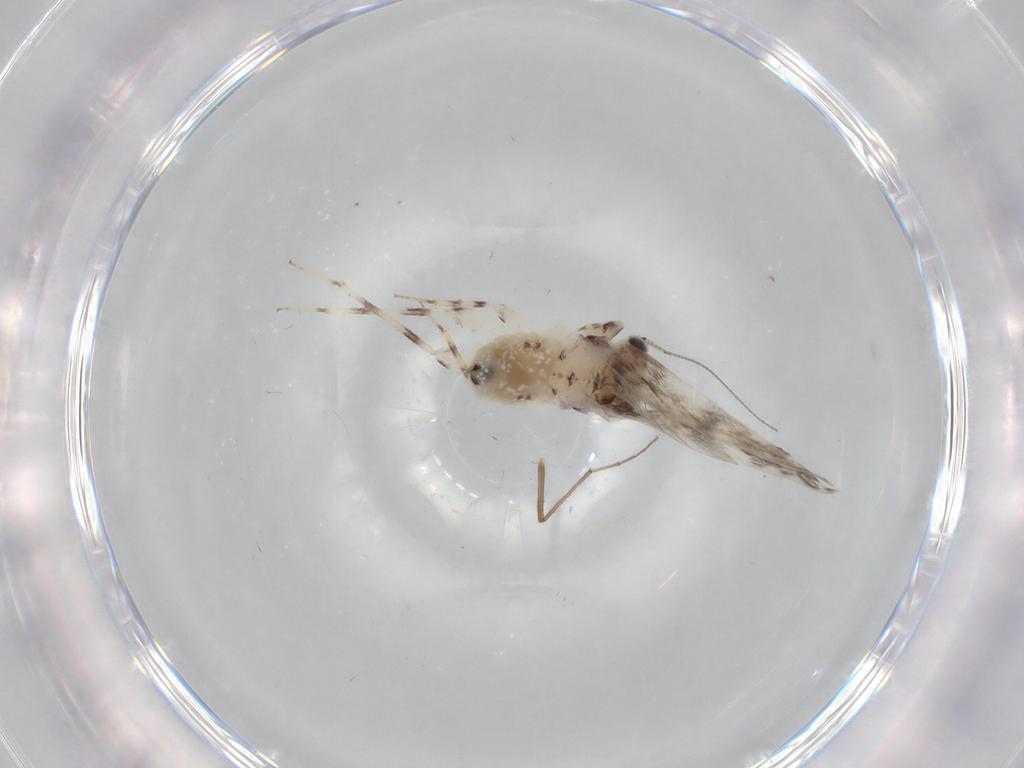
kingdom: Animalia
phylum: Arthropoda
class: Insecta
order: Psocodea
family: Lepidopsocidae
